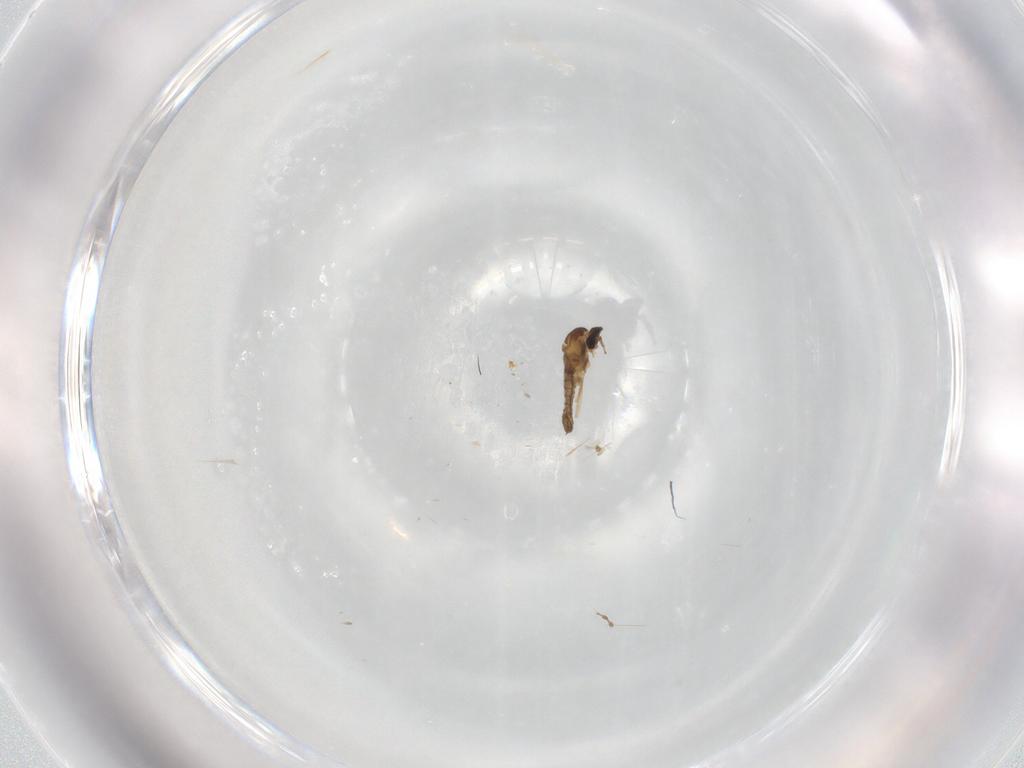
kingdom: Animalia
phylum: Arthropoda
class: Insecta
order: Diptera
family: Cecidomyiidae
